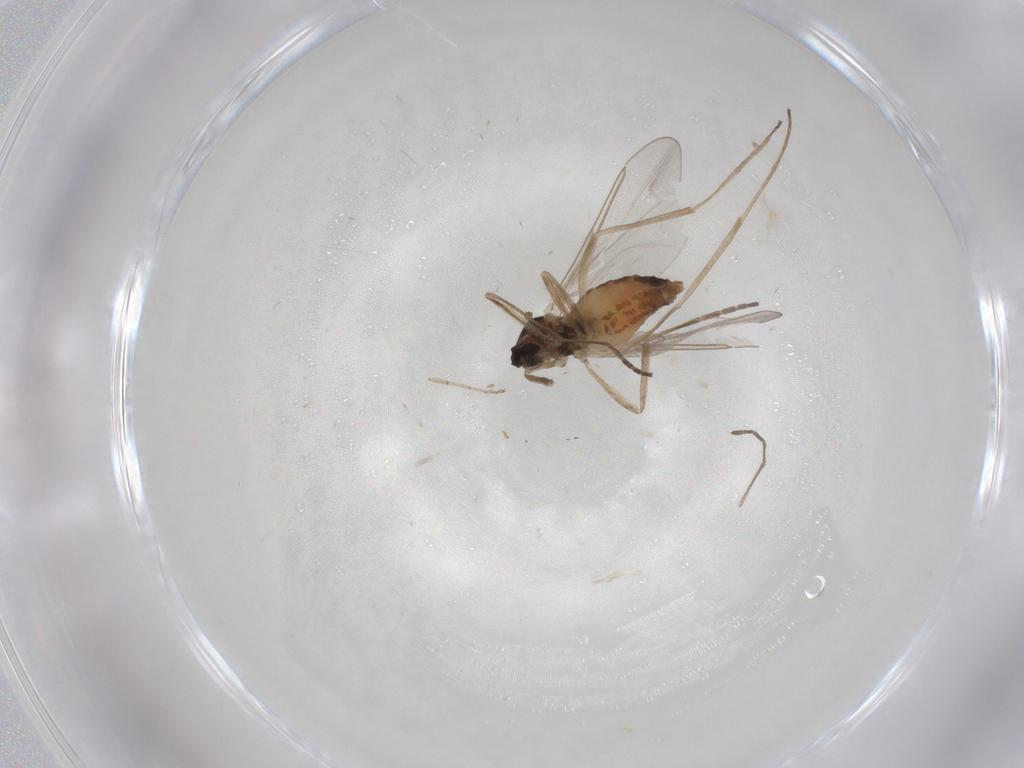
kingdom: Animalia
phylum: Arthropoda
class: Insecta
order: Diptera
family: Cecidomyiidae
